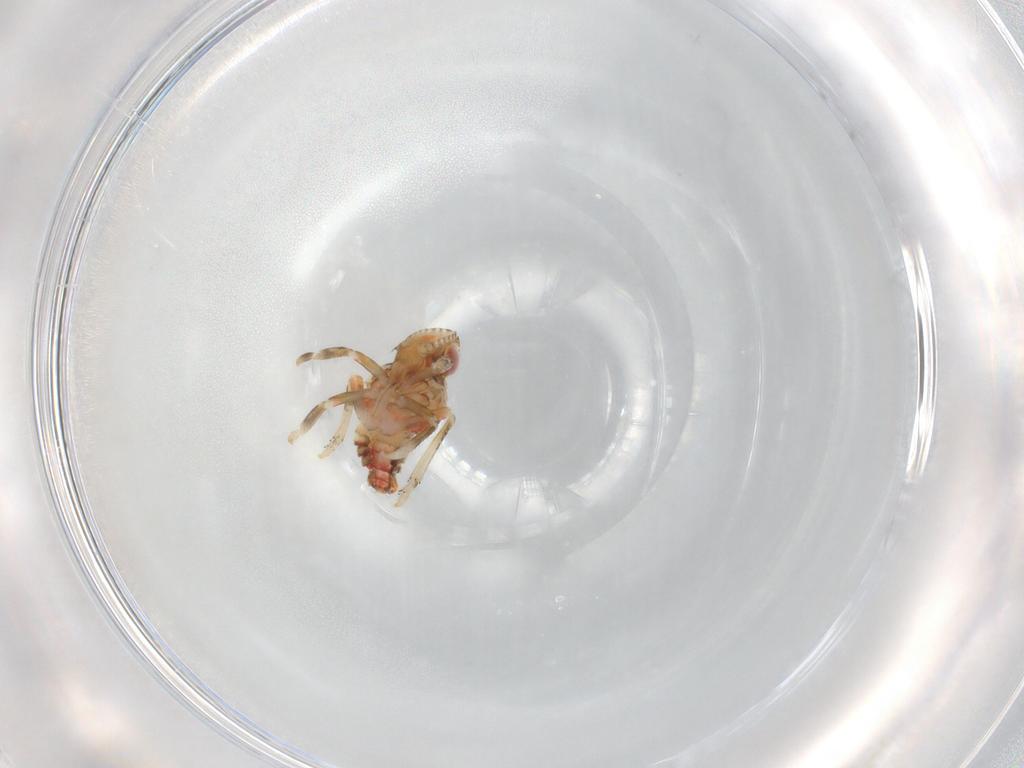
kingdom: Animalia
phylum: Arthropoda
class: Insecta
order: Hemiptera
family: Tropiduchidae
